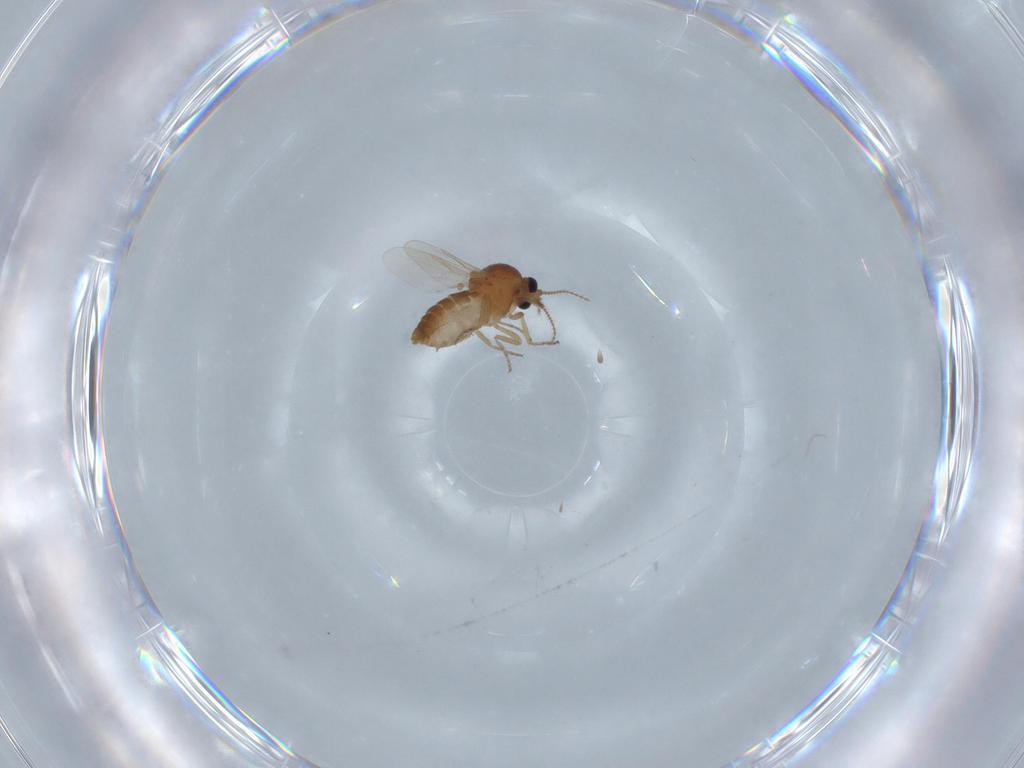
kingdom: Animalia
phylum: Arthropoda
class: Insecta
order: Diptera
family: Ceratopogonidae
